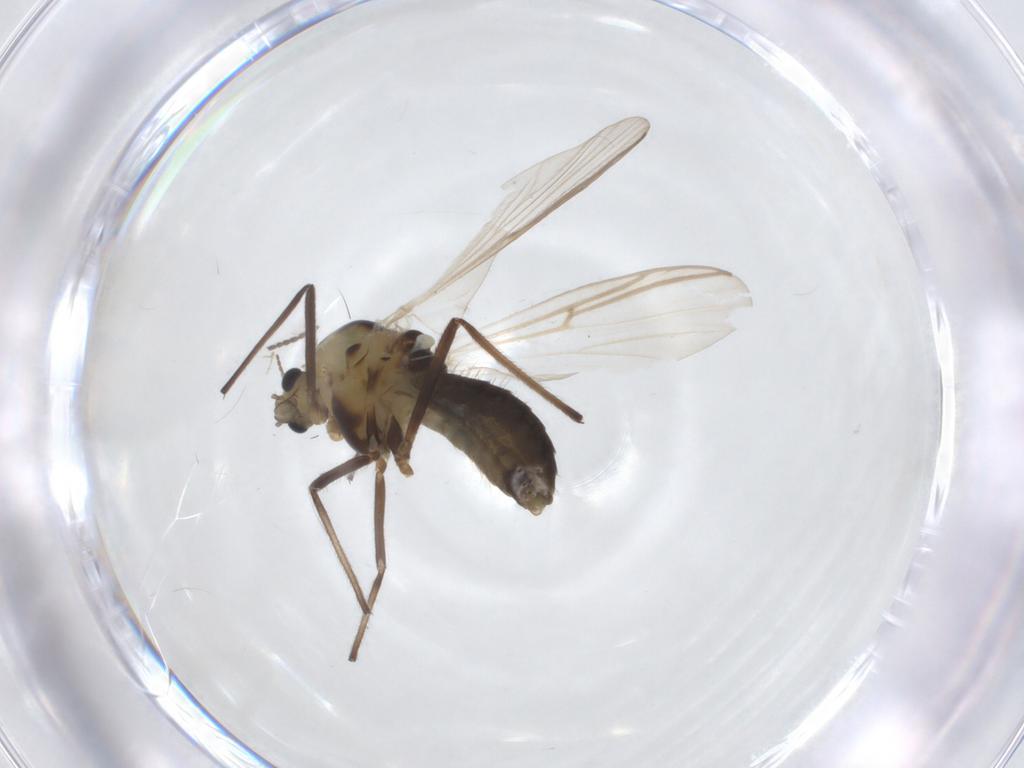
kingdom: Animalia
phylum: Arthropoda
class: Insecta
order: Diptera
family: Chironomidae
